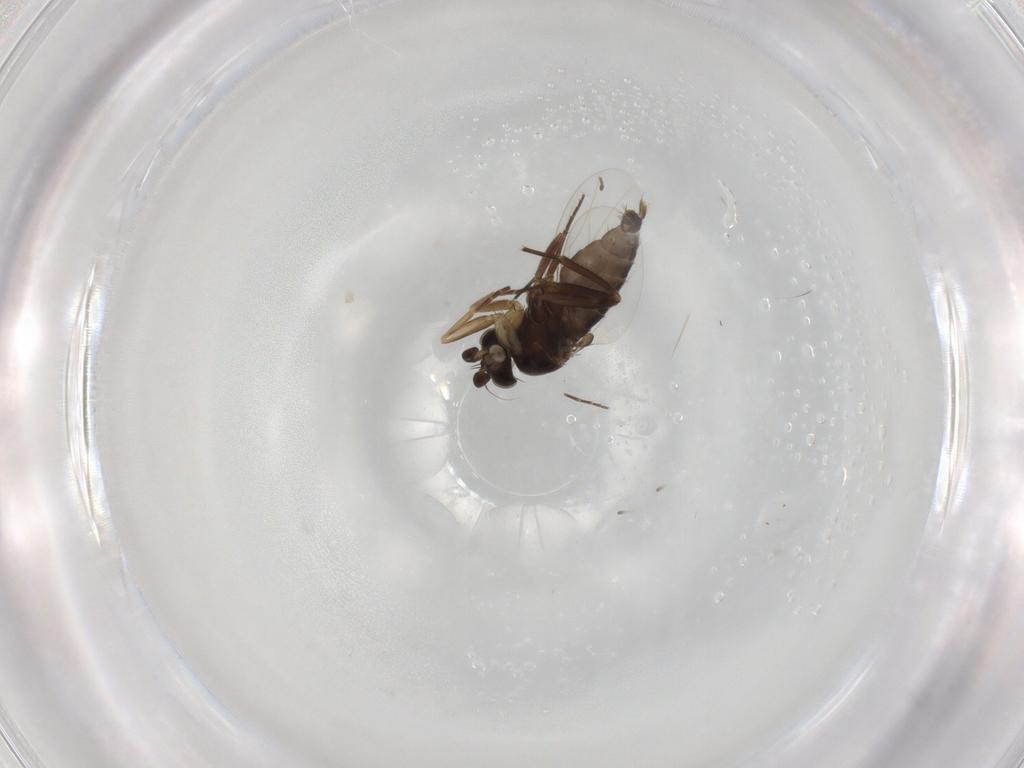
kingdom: Animalia
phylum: Arthropoda
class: Insecta
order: Diptera
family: Phoridae
